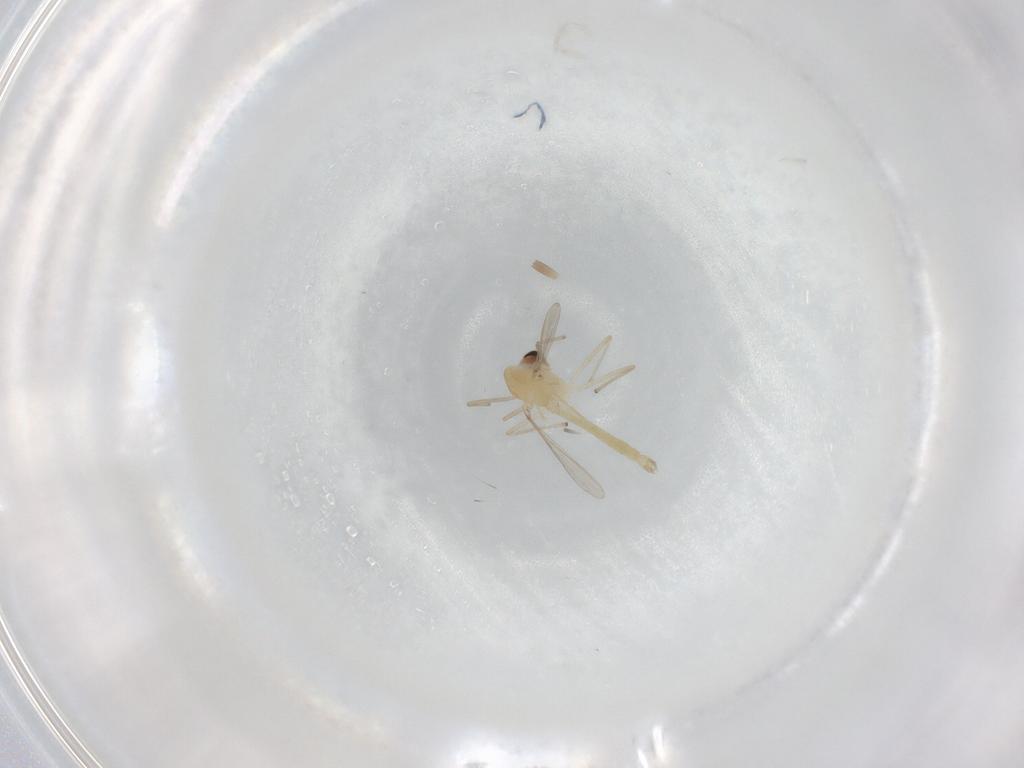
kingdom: Animalia
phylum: Arthropoda
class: Insecta
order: Diptera
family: Chironomidae
